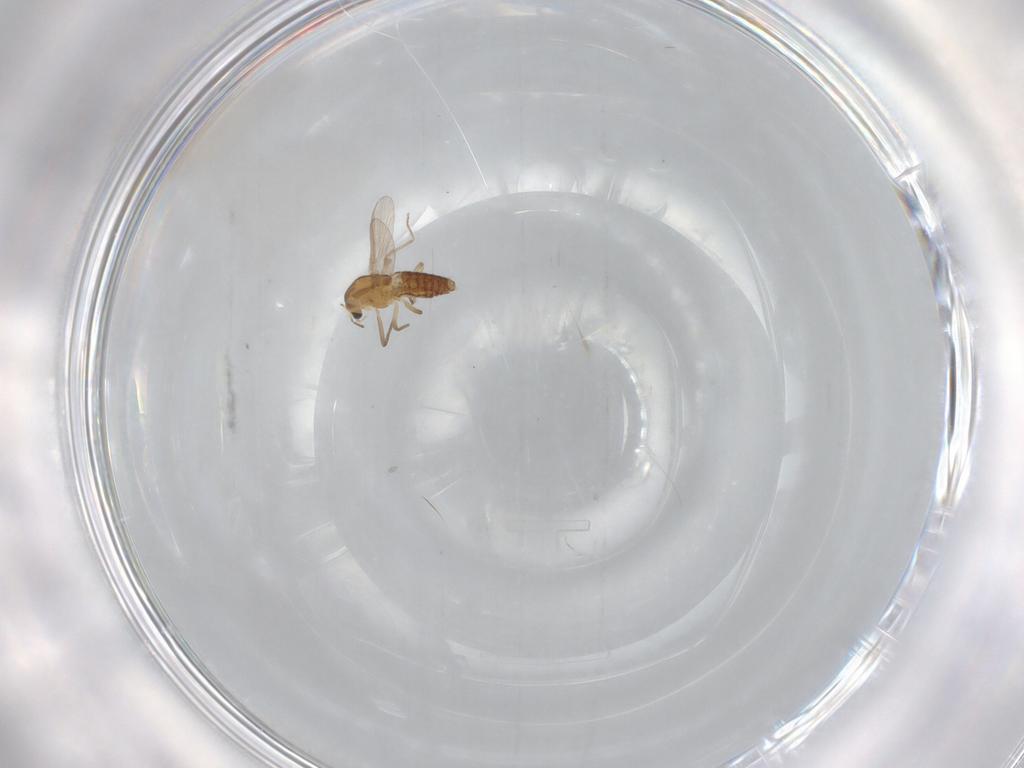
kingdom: Animalia
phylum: Arthropoda
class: Insecta
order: Diptera
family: Chironomidae
